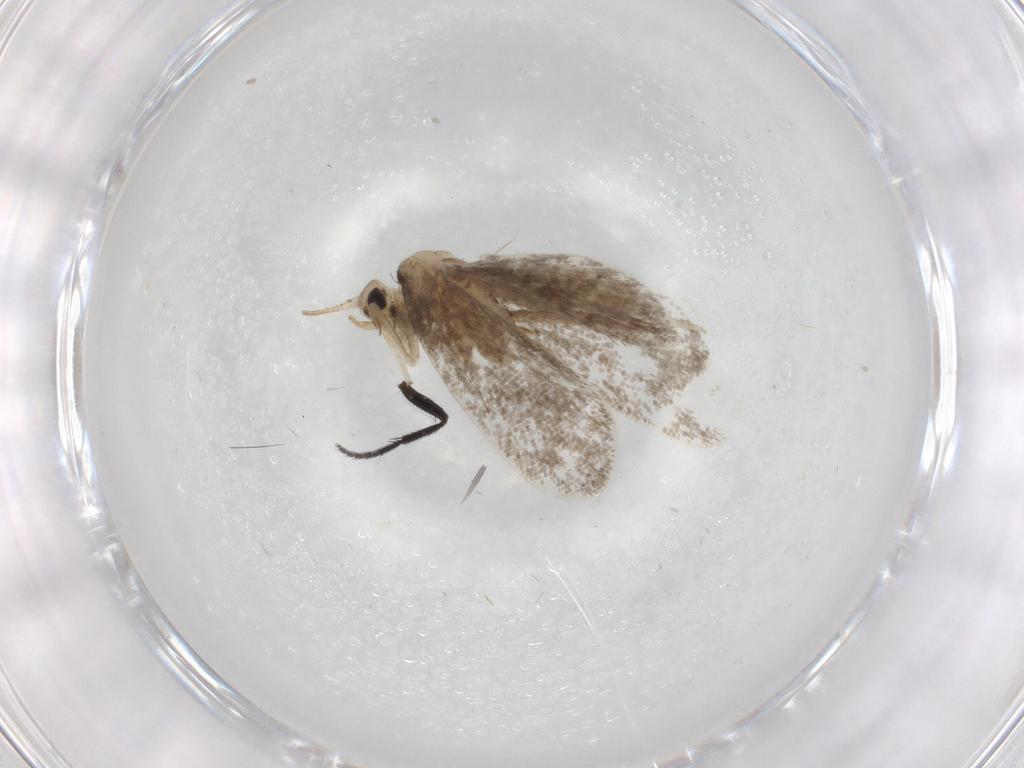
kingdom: Animalia
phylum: Arthropoda
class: Insecta
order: Lepidoptera
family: Psychidae
